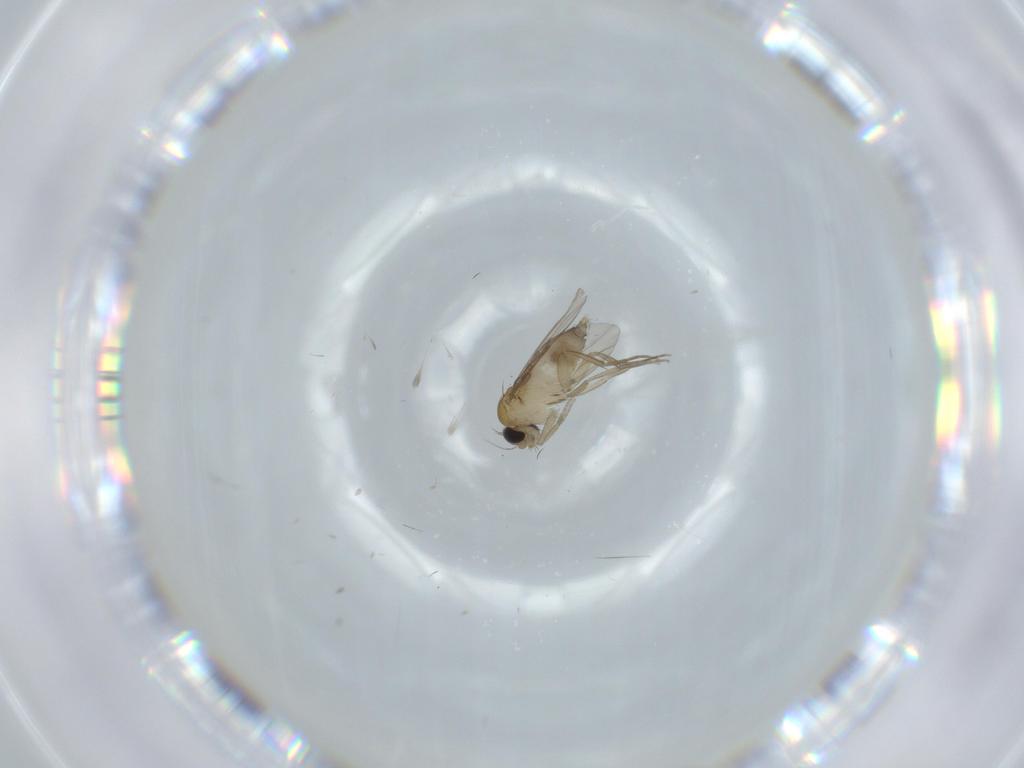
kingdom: Animalia
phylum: Arthropoda
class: Insecta
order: Diptera
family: Phoridae
